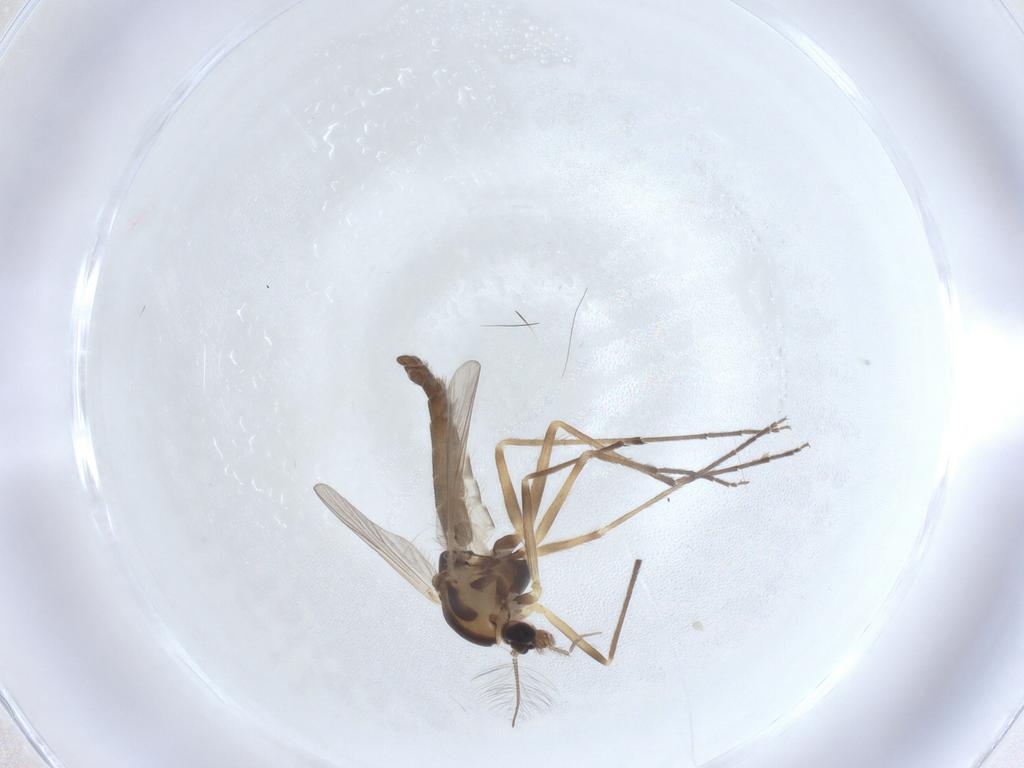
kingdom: Animalia
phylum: Arthropoda
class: Insecta
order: Diptera
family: Chironomidae
